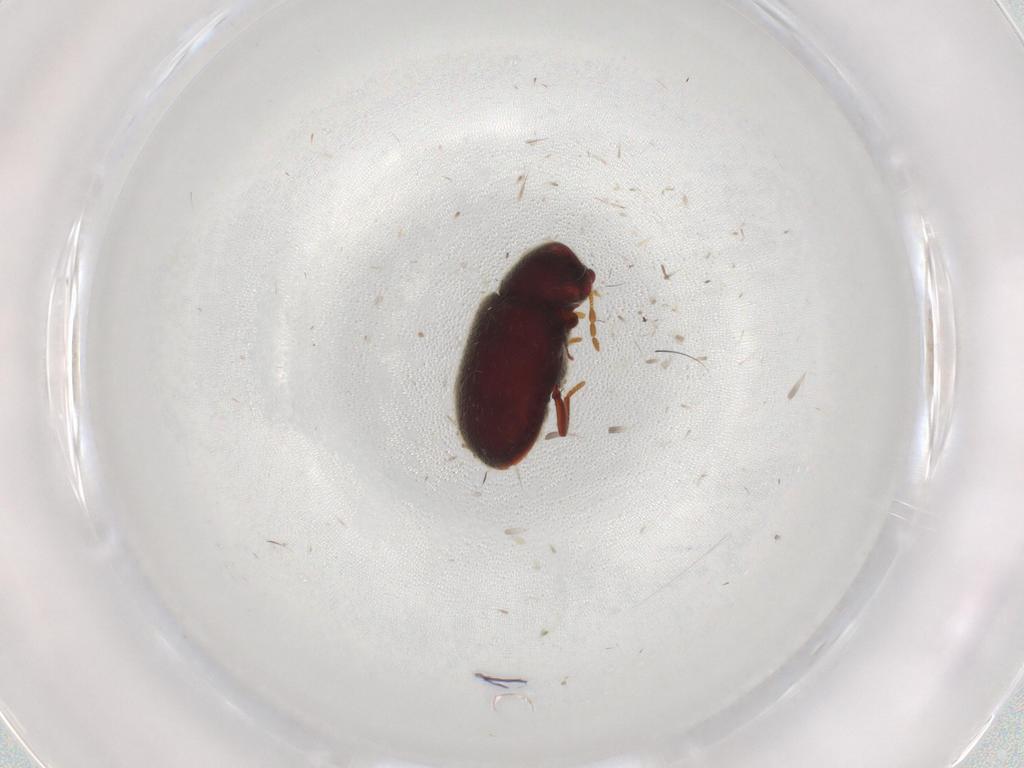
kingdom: Animalia
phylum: Arthropoda
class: Insecta
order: Coleoptera
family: Ptinidae
